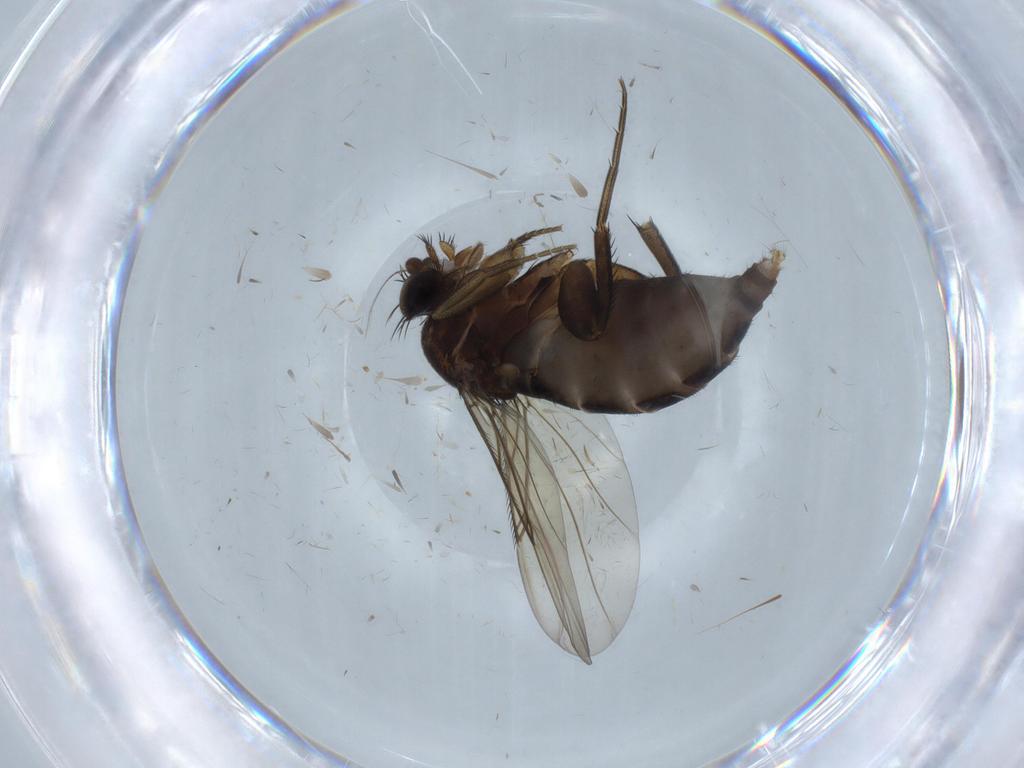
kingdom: Animalia
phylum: Arthropoda
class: Insecta
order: Diptera
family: Phoridae
